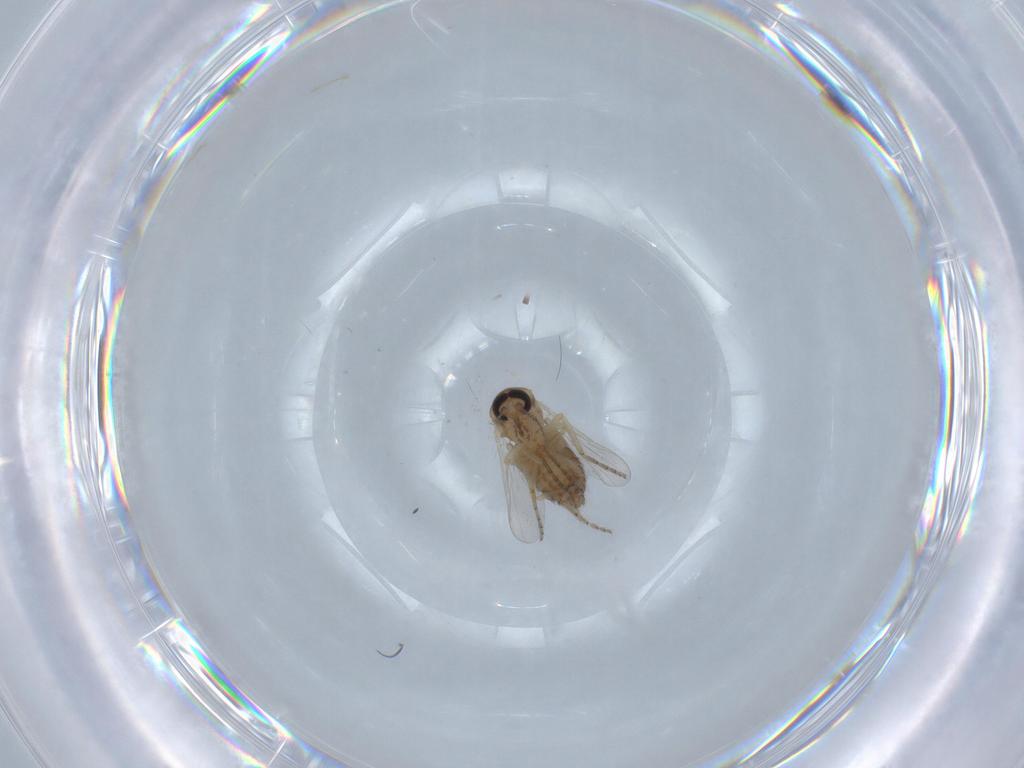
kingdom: Animalia
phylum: Arthropoda
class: Insecta
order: Diptera
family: Ceratopogonidae
